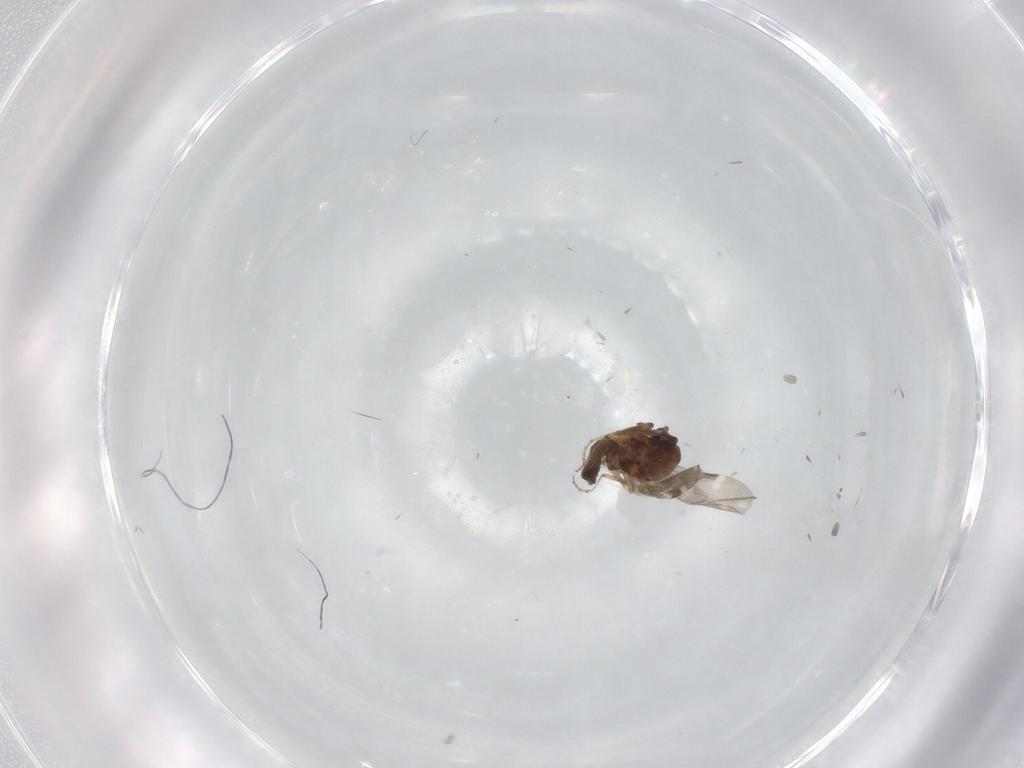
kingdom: Animalia
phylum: Arthropoda
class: Insecta
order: Diptera
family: Ceratopogonidae
